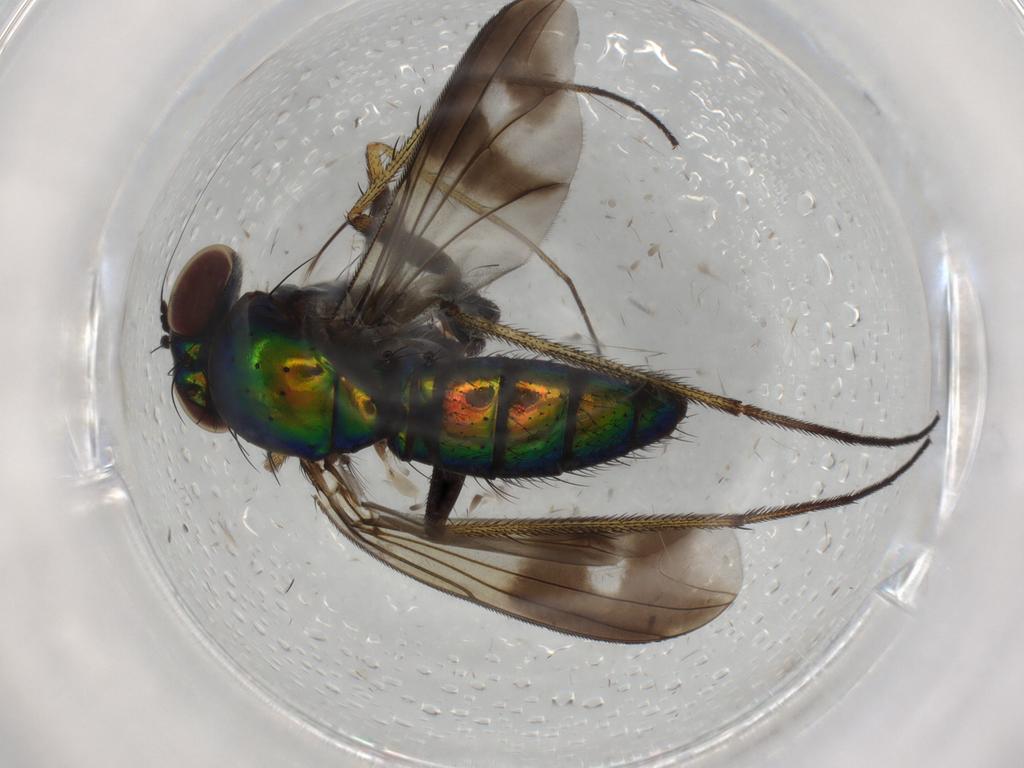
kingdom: Animalia
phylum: Arthropoda
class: Insecta
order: Diptera
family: Dolichopodidae
